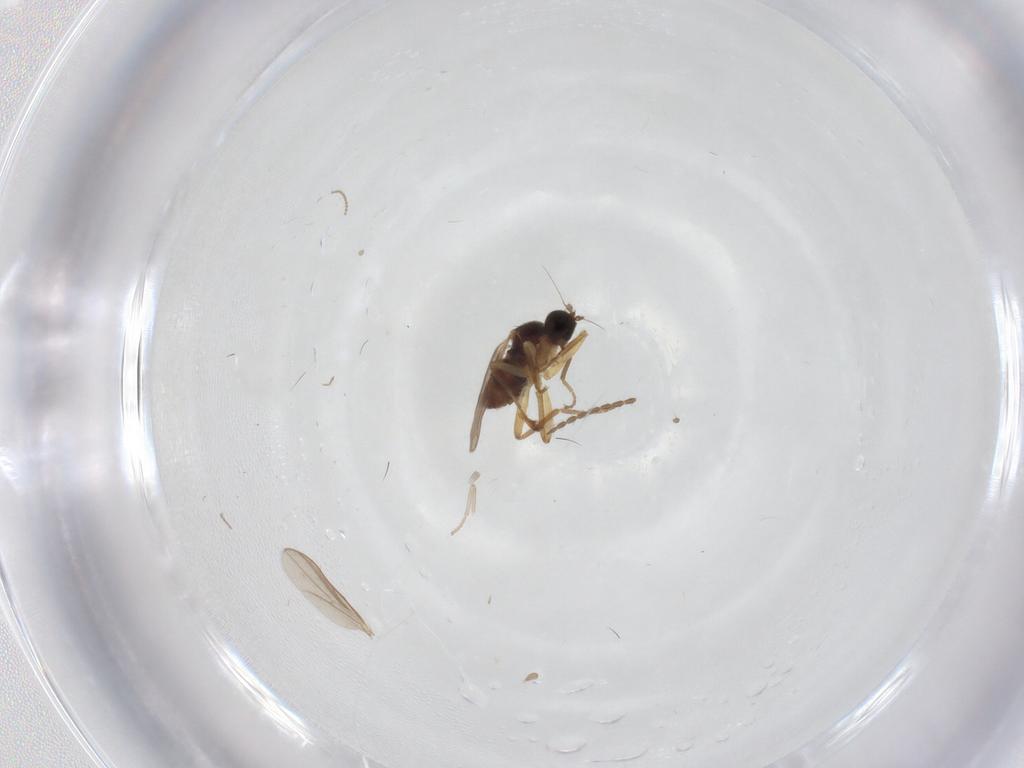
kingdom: Animalia
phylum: Arthropoda
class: Insecta
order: Diptera
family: Hybotidae
